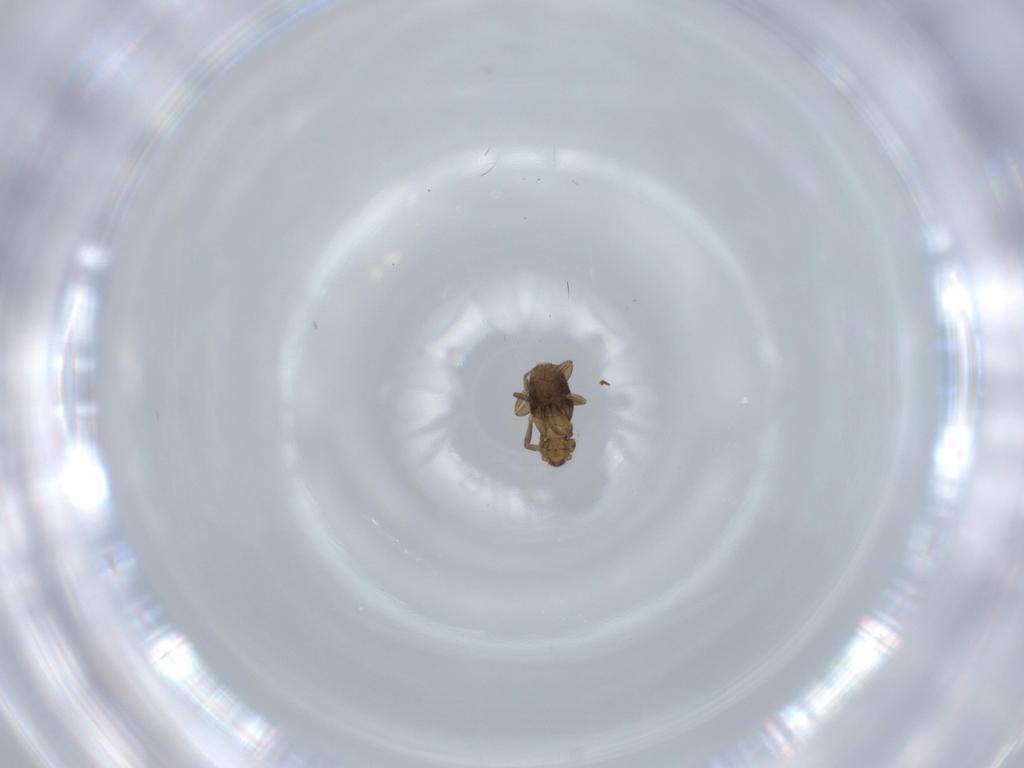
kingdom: Animalia
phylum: Arthropoda
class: Insecta
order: Diptera
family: Phoridae
